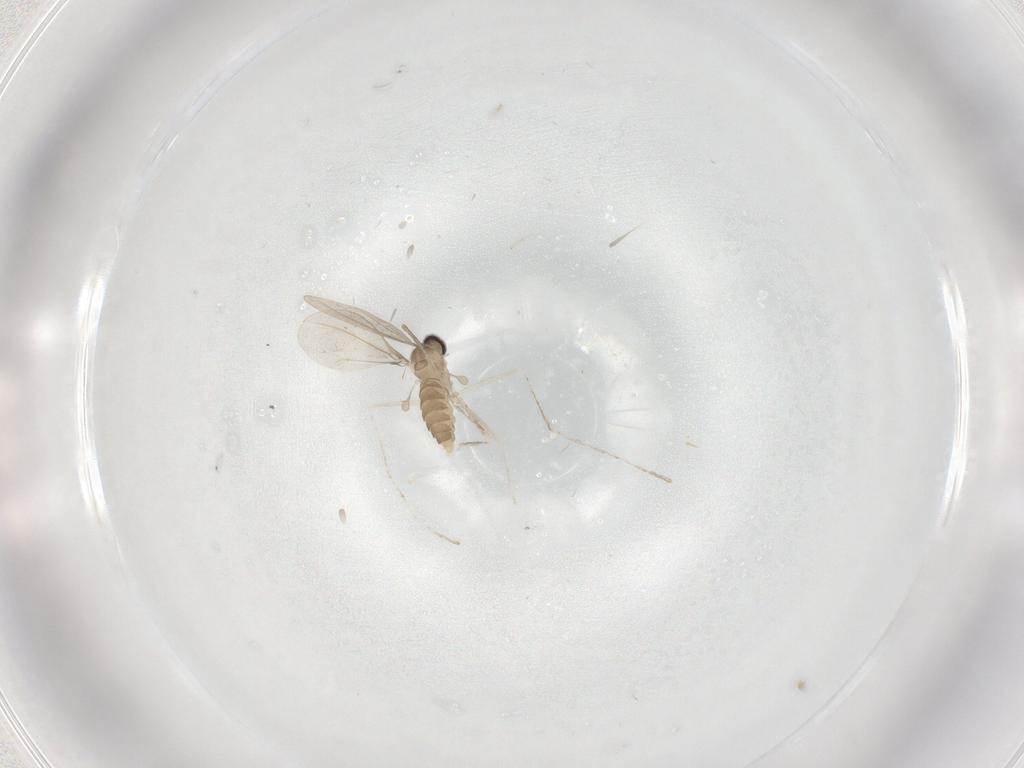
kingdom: Animalia
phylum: Arthropoda
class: Insecta
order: Diptera
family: Cecidomyiidae
